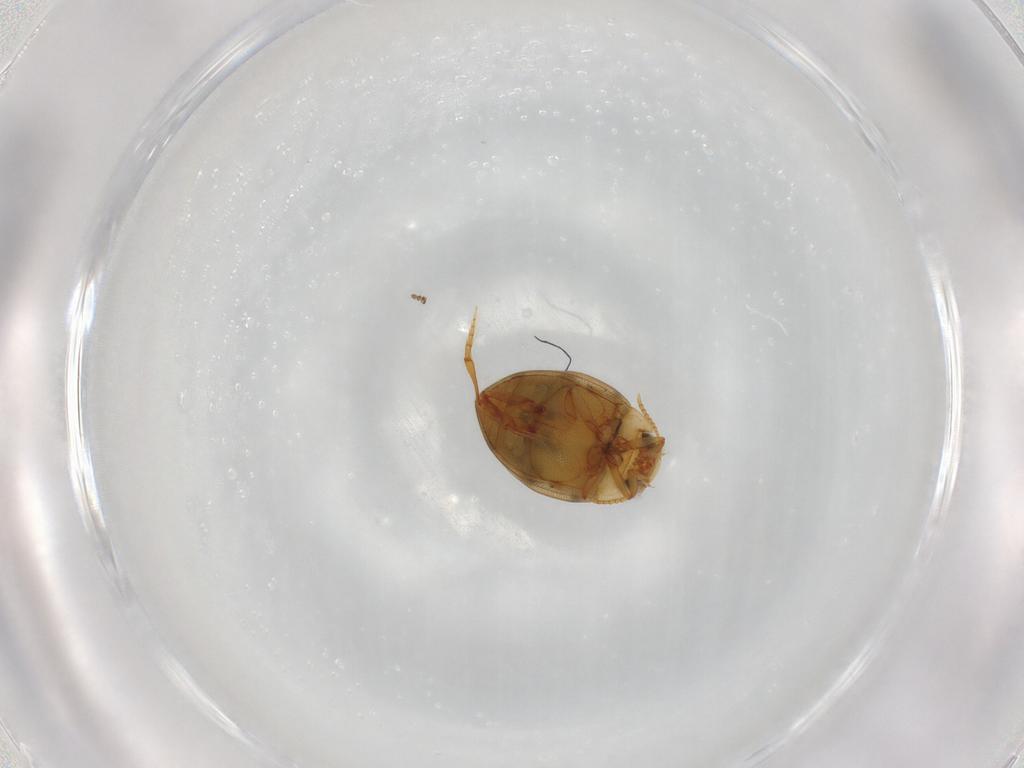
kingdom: Animalia
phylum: Arthropoda
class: Insecta
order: Coleoptera
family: Dytiscidae
